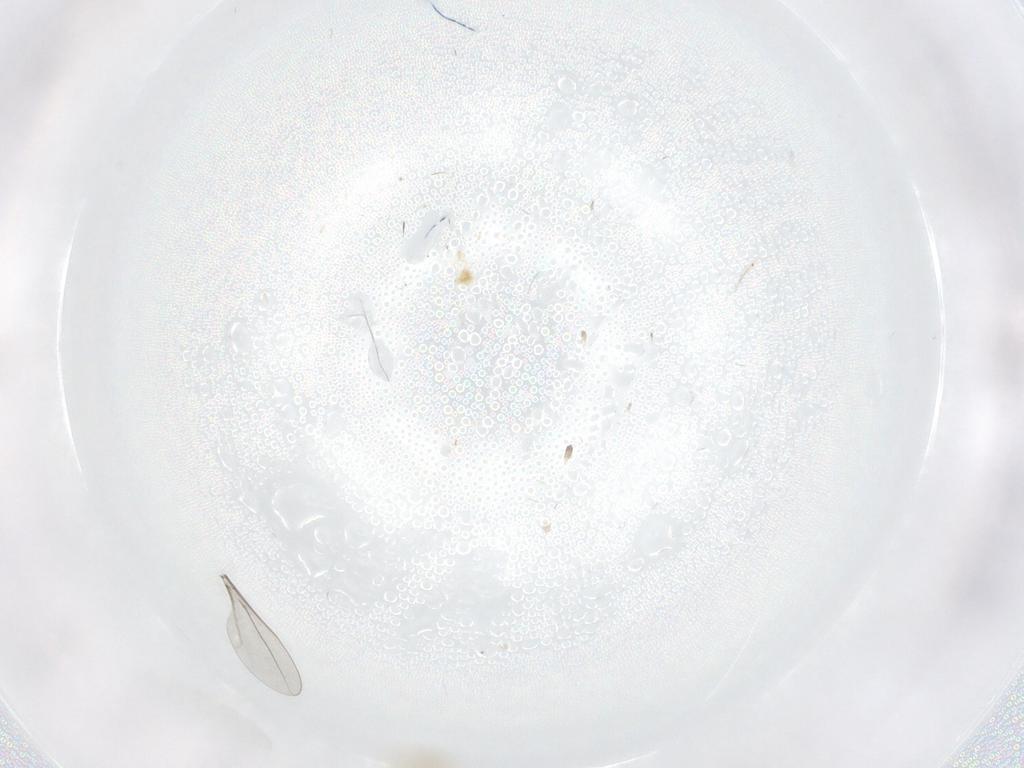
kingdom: Animalia
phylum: Arthropoda
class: Insecta
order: Diptera
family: Cecidomyiidae
